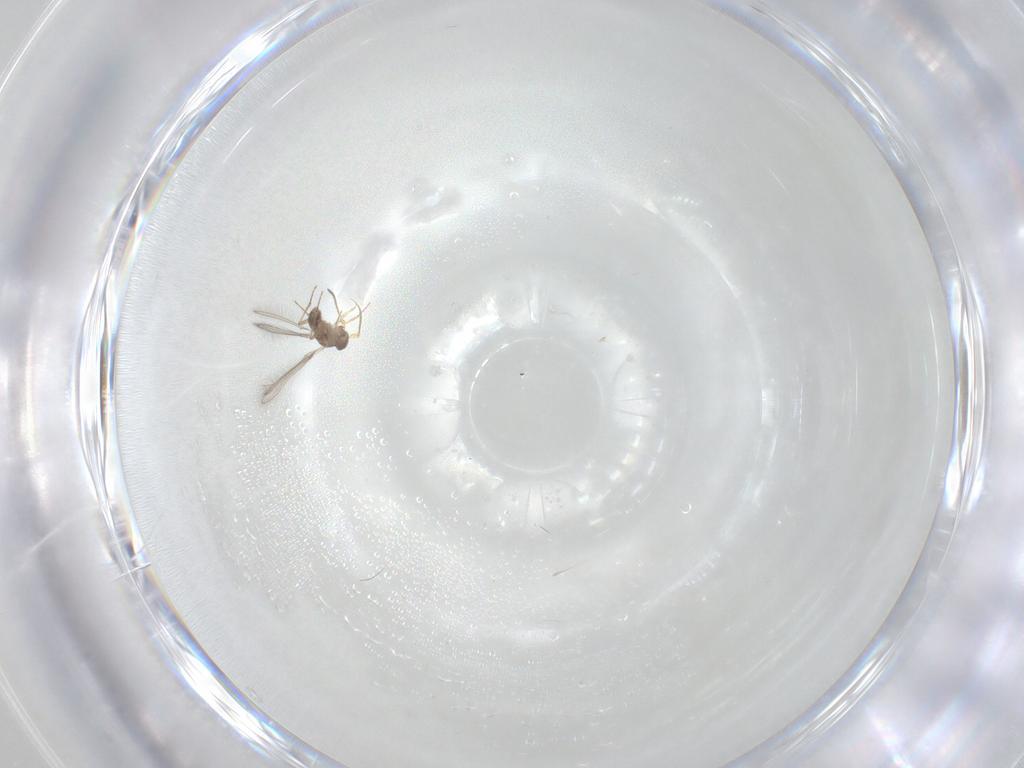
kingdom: Animalia
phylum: Arthropoda
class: Insecta
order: Hymenoptera
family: Mymaridae
